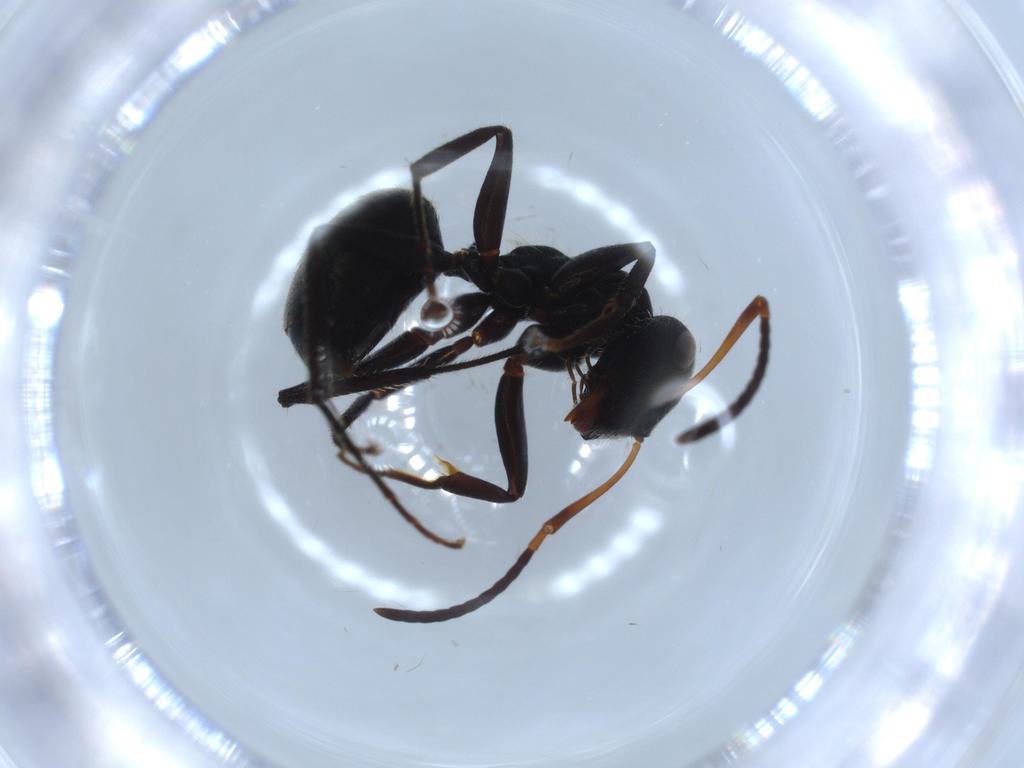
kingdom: Animalia
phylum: Arthropoda
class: Insecta
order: Hymenoptera
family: Formicidae
